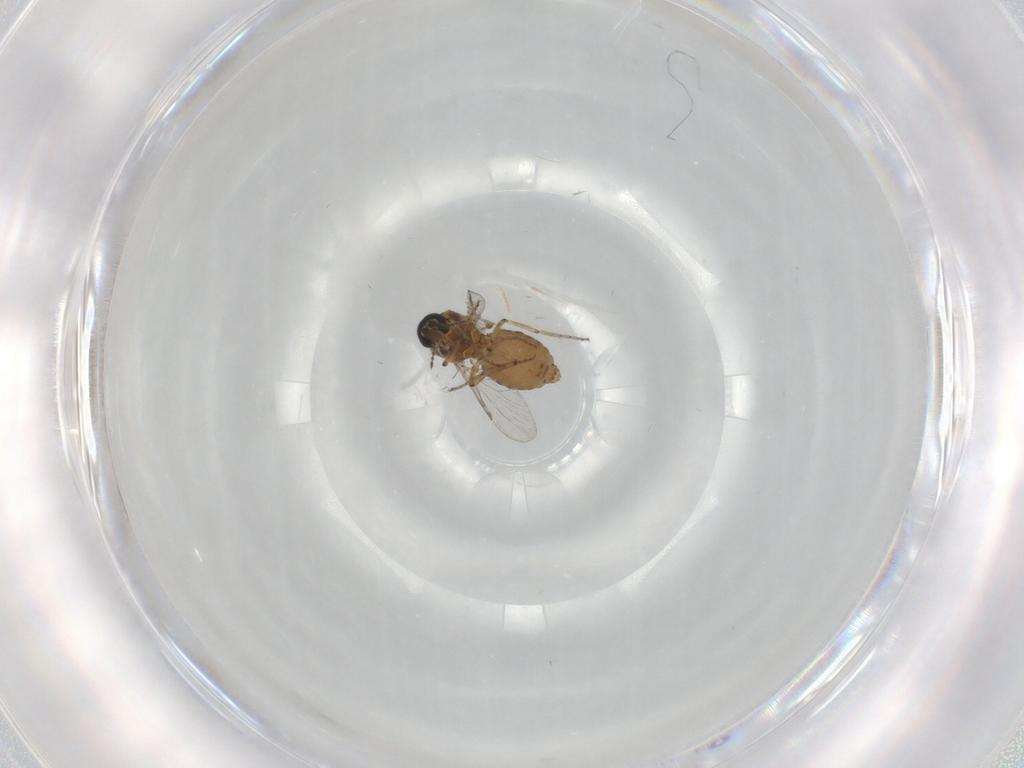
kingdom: Animalia
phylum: Arthropoda
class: Insecta
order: Diptera
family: Ceratopogonidae
